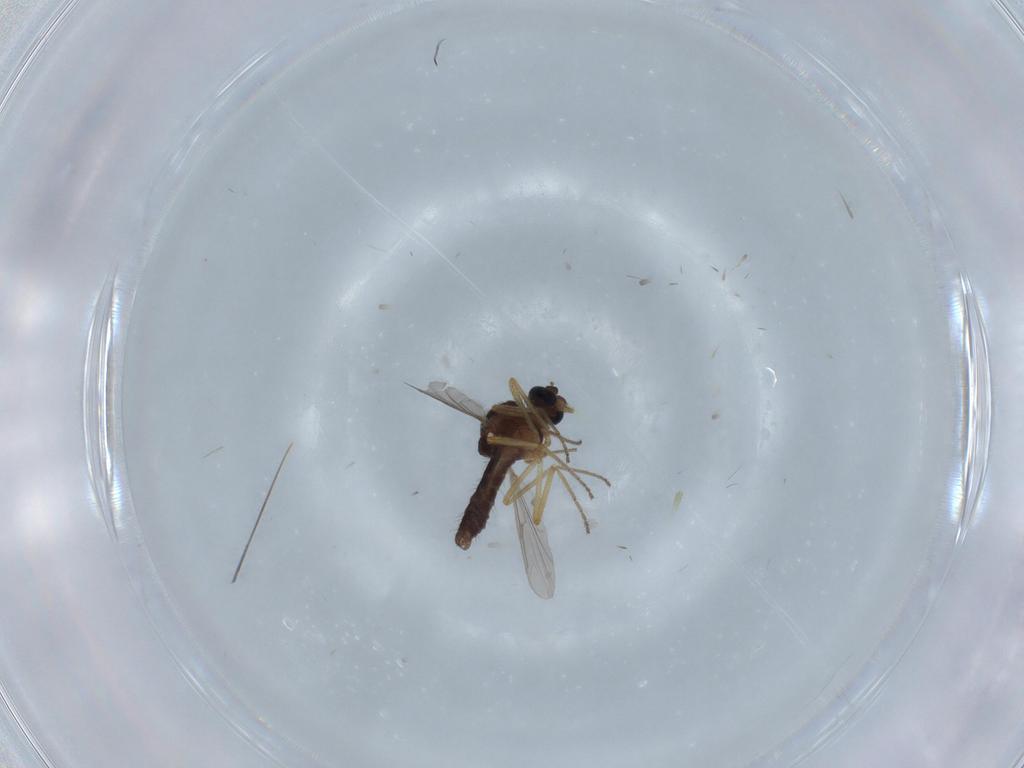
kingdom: Animalia
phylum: Arthropoda
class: Insecta
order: Diptera
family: Ceratopogonidae
